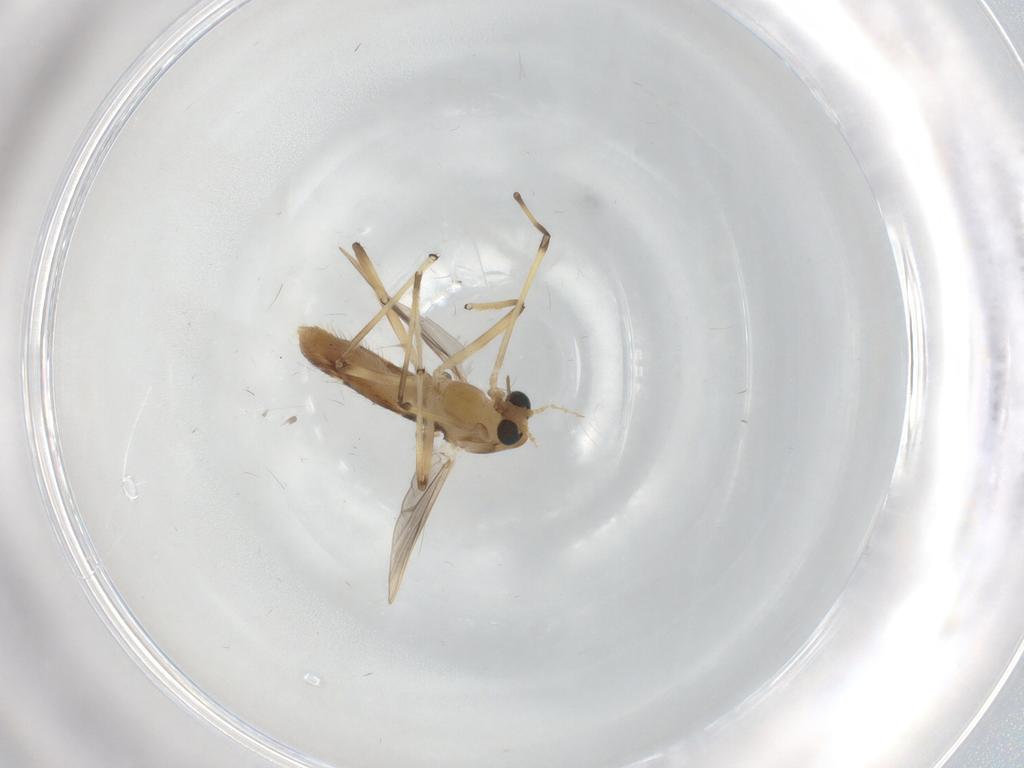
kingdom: Animalia
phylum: Arthropoda
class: Insecta
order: Diptera
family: Chironomidae
